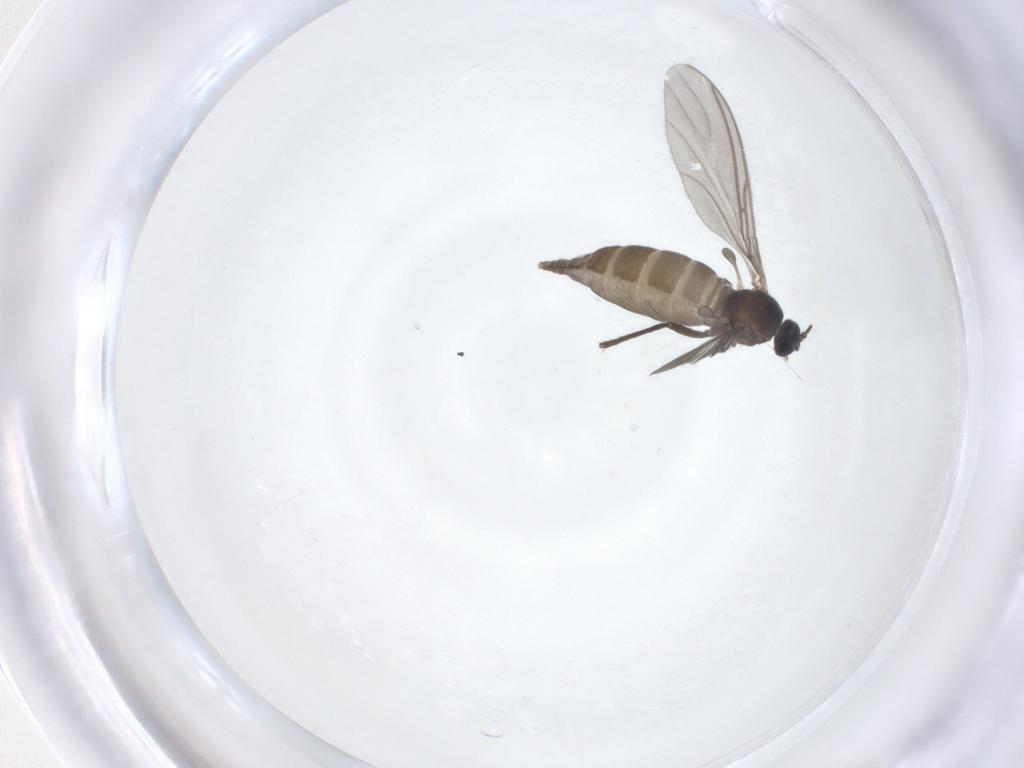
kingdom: Animalia
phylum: Arthropoda
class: Insecta
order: Diptera
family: Sciaridae
